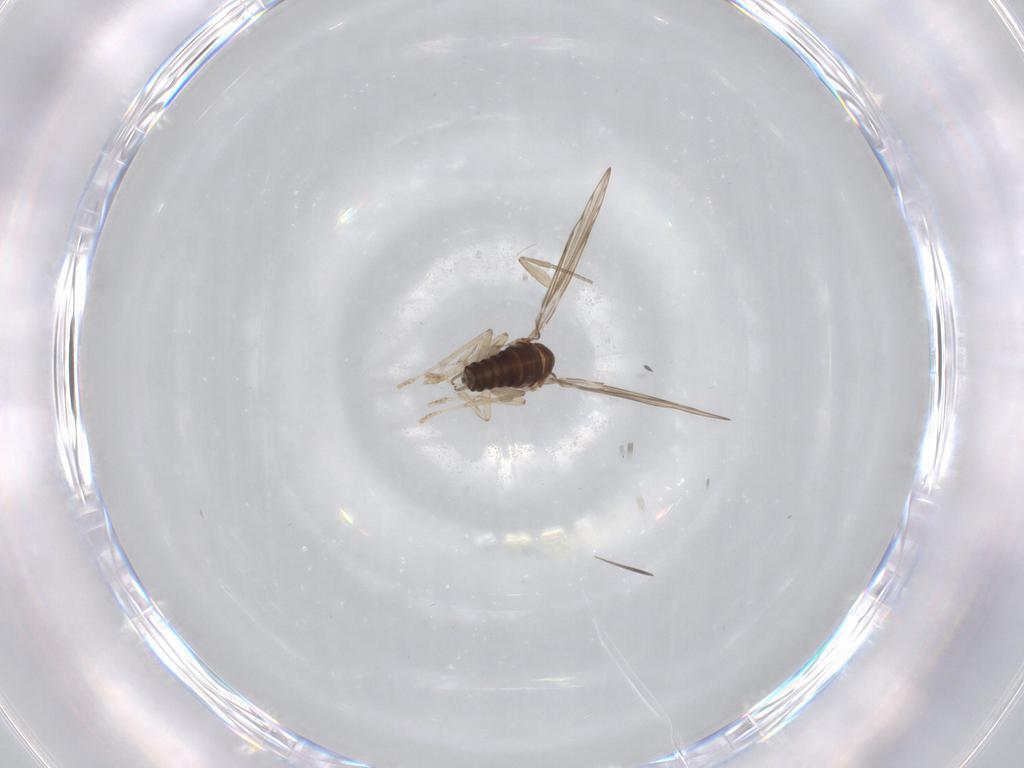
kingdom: Animalia
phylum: Arthropoda
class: Insecta
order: Diptera
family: Psychodidae
